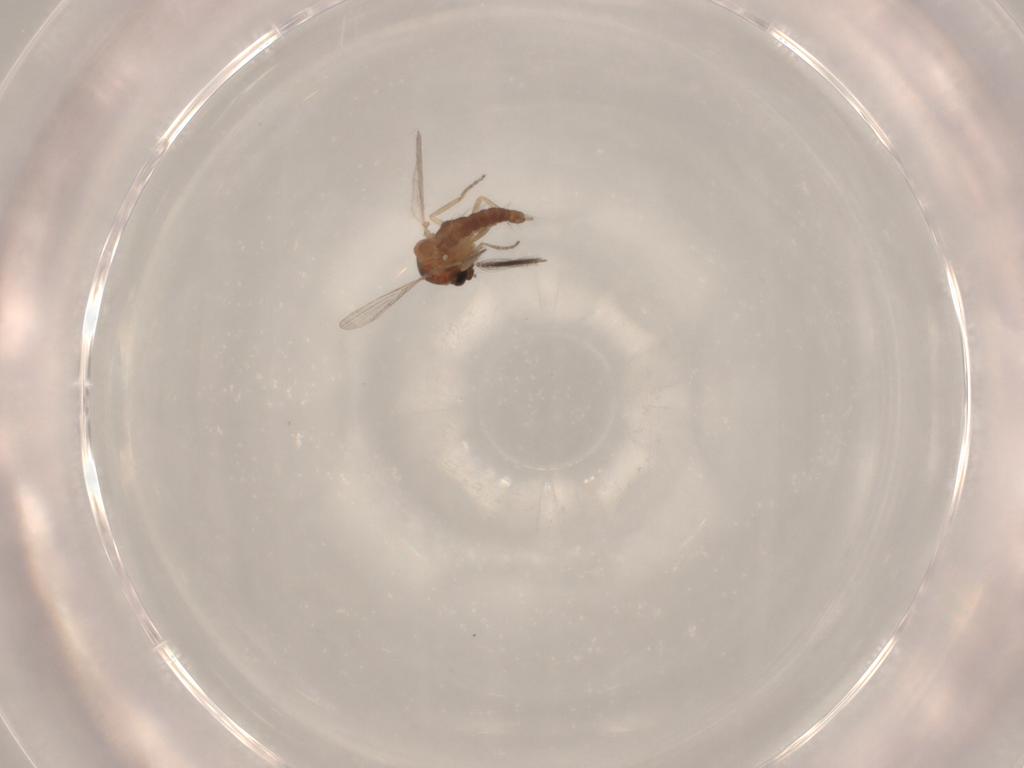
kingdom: Animalia
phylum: Arthropoda
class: Insecta
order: Diptera
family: Ceratopogonidae
